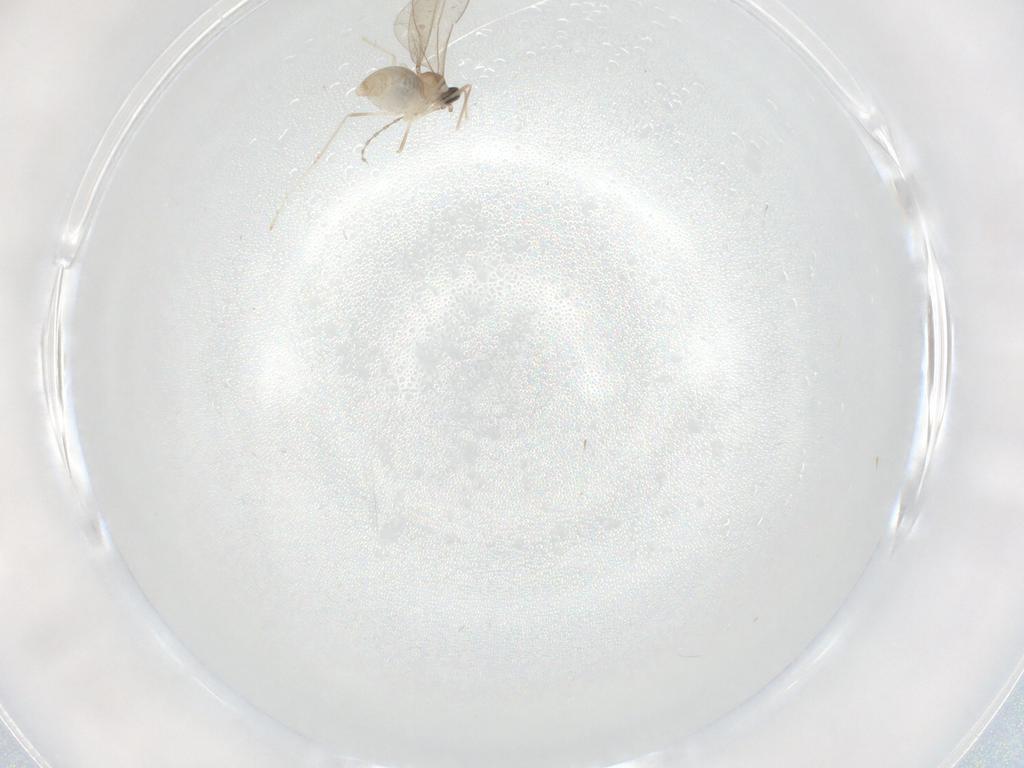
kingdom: Animalia
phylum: Arthropoda
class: Insecta
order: Diptera
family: Cecidomyiidae
